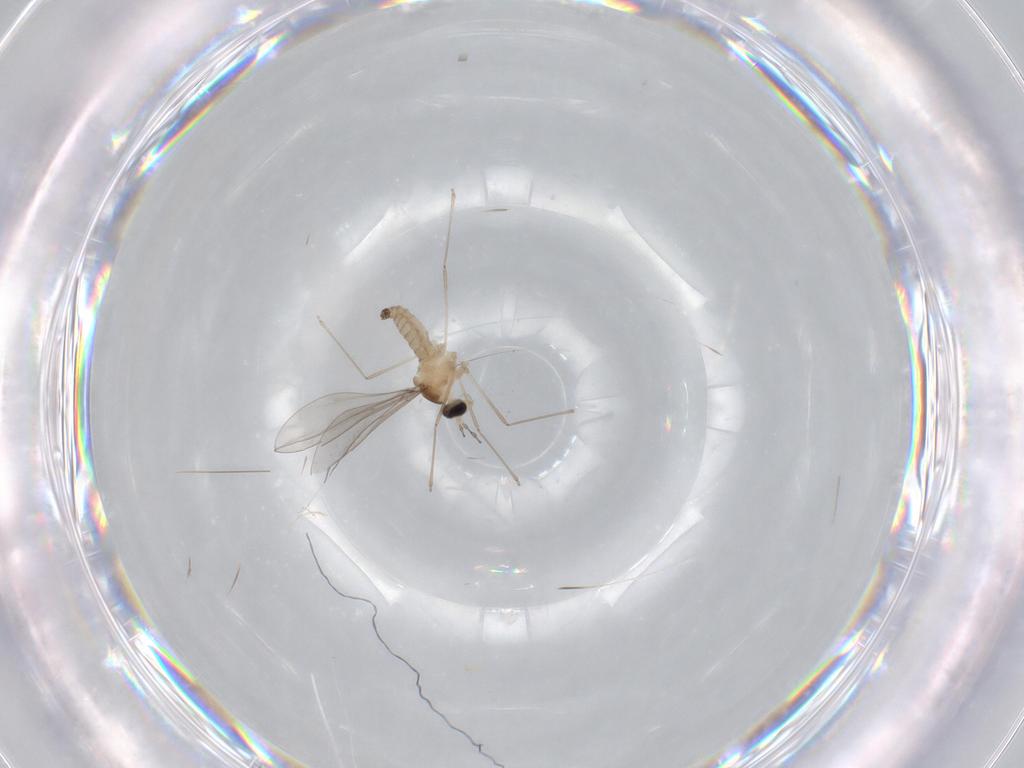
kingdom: Animalia
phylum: Arthropoda
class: Insecta
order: Diptera
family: Cecidomyiidae
